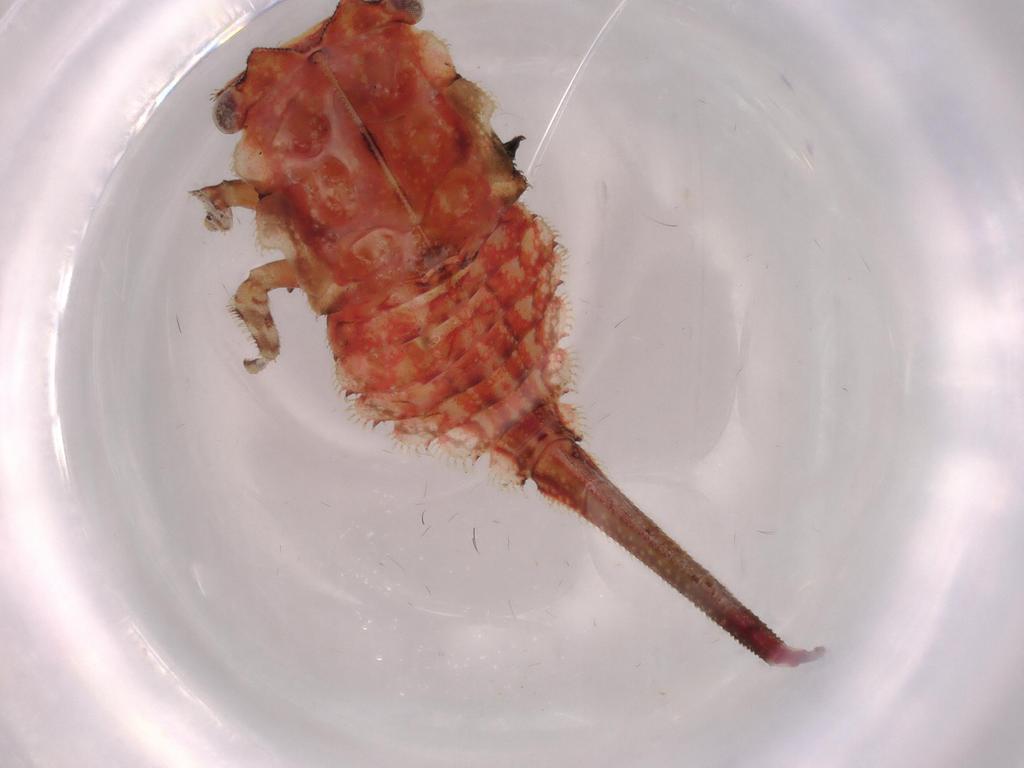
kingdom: Animalia
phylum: Arthropoda
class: Insecta
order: Hemiptera
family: Membracidae
